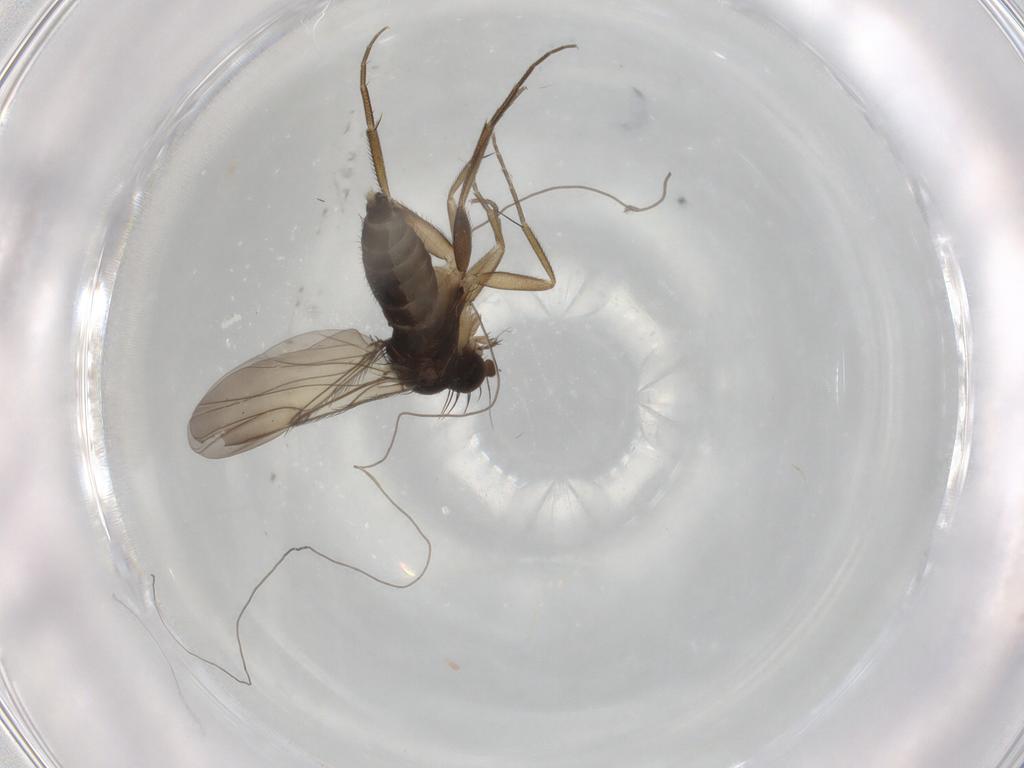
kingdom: Animalia
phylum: Arthropoda
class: Insecta
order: Diptera
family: Phoridae
